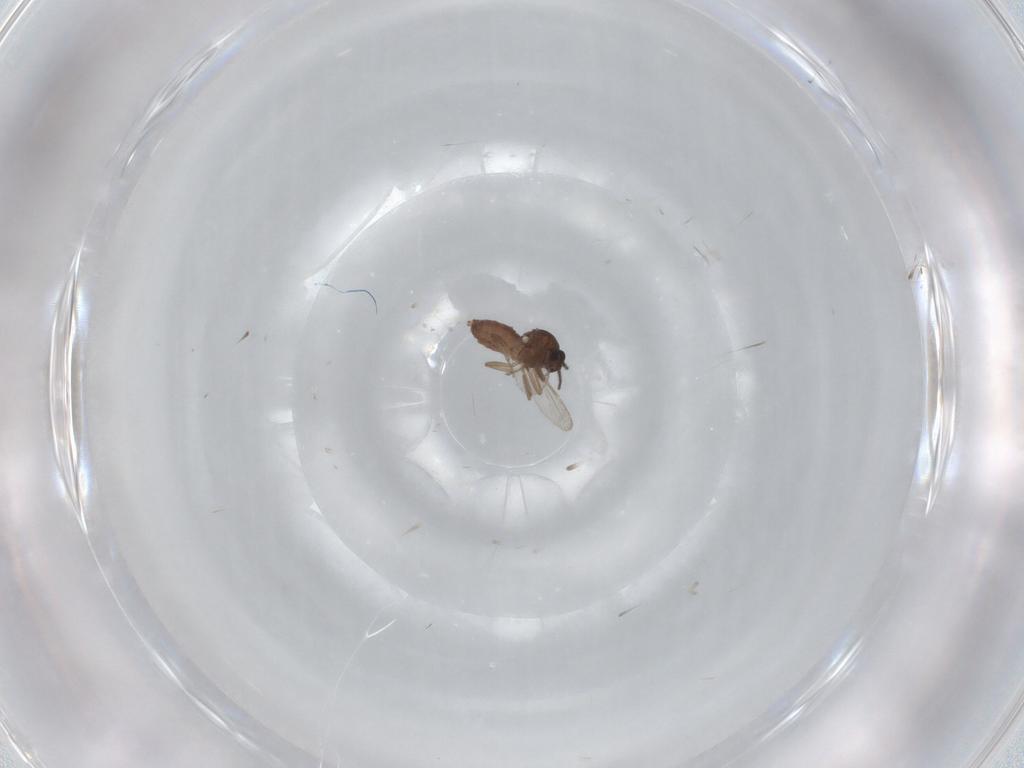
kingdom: Animalia
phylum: Arthropoda
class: Insecta
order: Diptera
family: Ceratopogonidae
